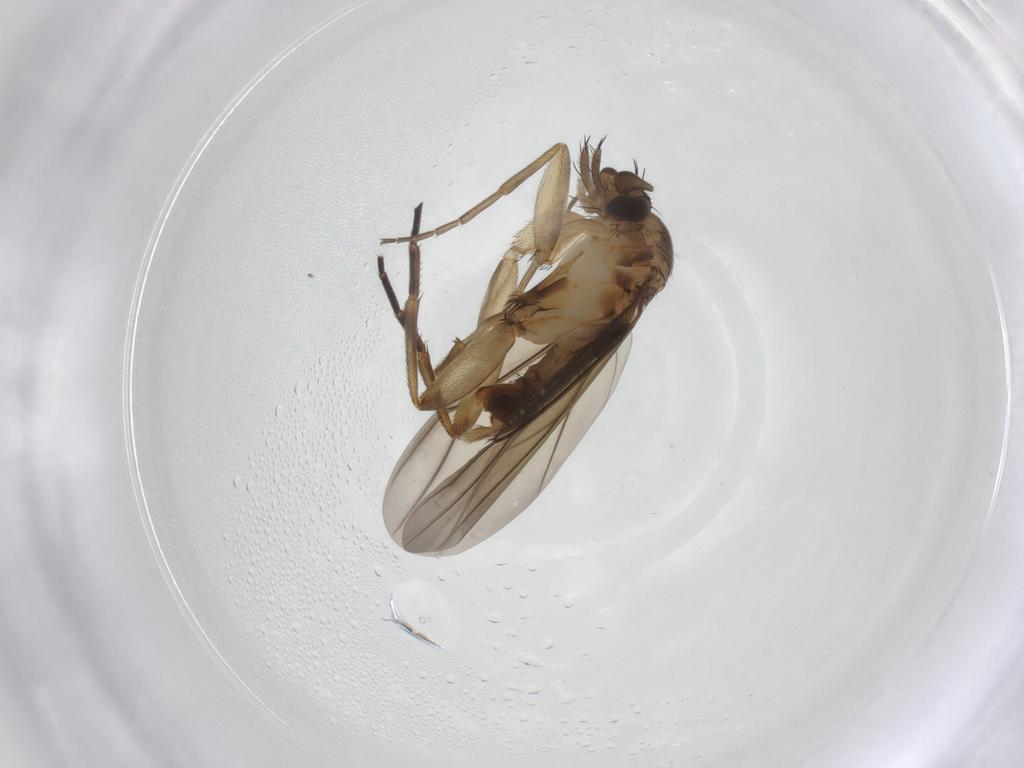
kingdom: Animalia
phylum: Arthropoda
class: Insecta
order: Diptera
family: Phoridae
